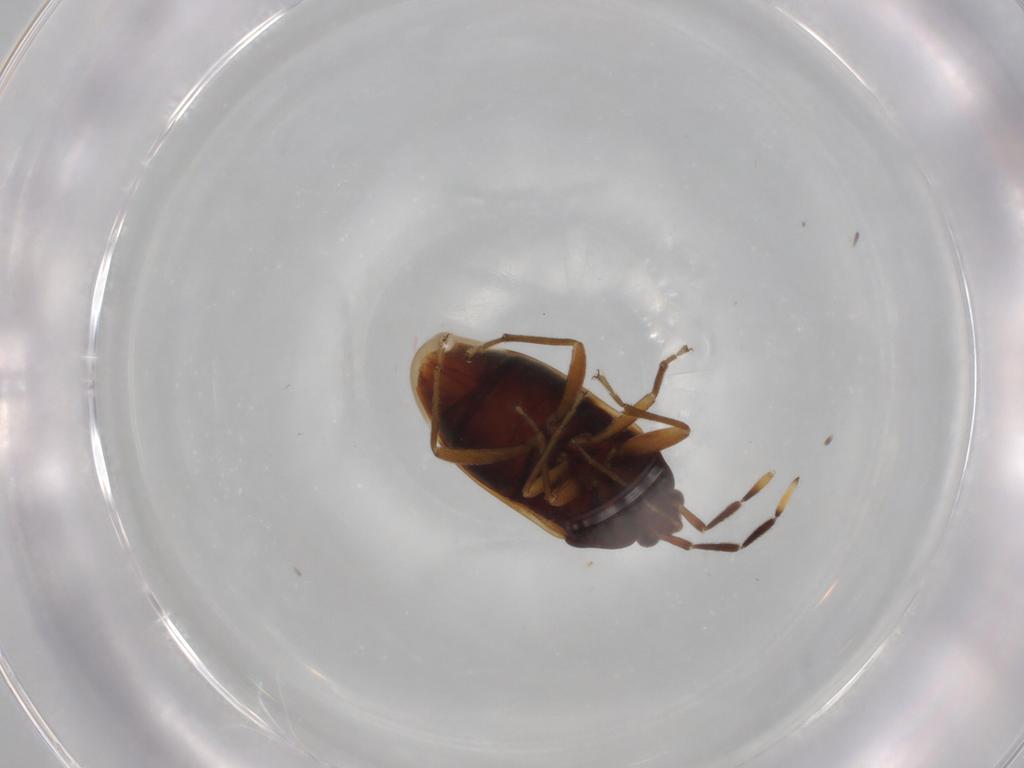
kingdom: Animalia
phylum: Arthropoda
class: Insecta
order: Hemiptera
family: Rhyparochromidae
